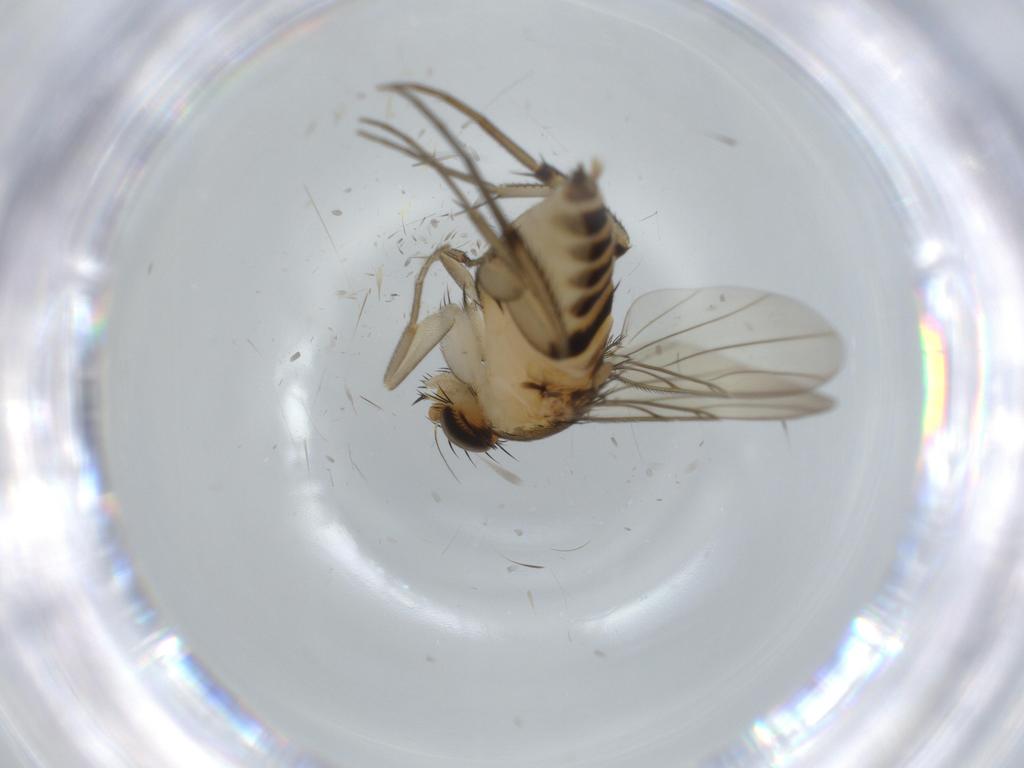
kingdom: Animalia
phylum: Arthropoda
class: Insecta
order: Diptera
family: Phoridae
